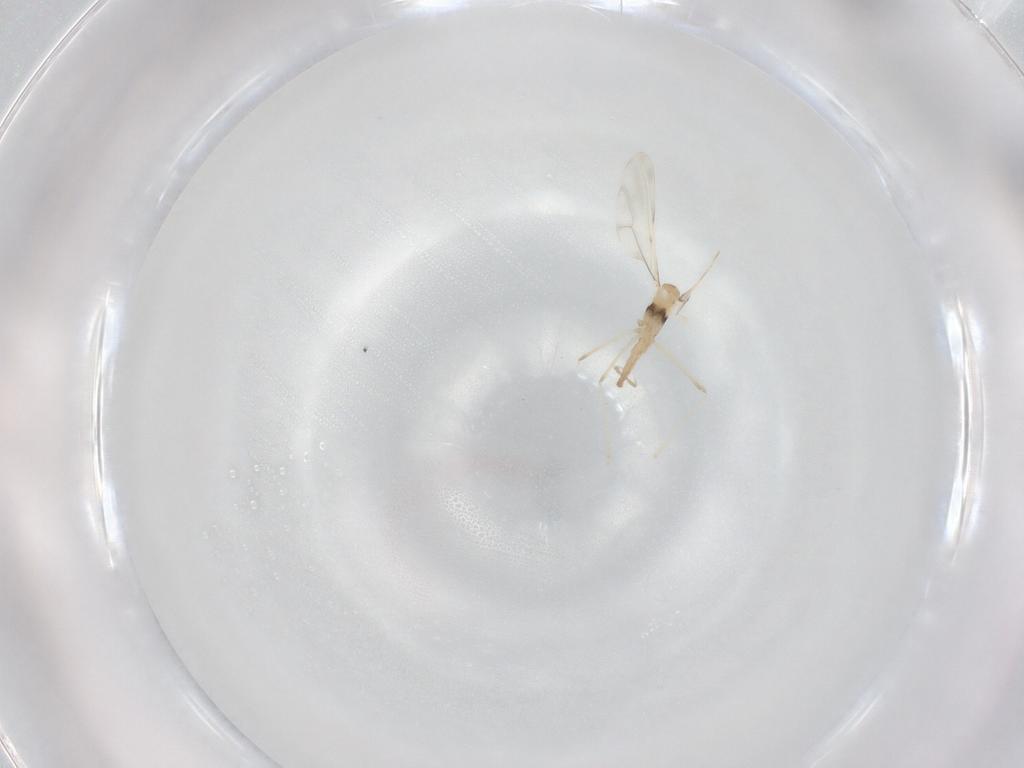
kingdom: Animalia
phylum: Arthropoda
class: Insecta
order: Diptera
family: Cecidomyiidae
